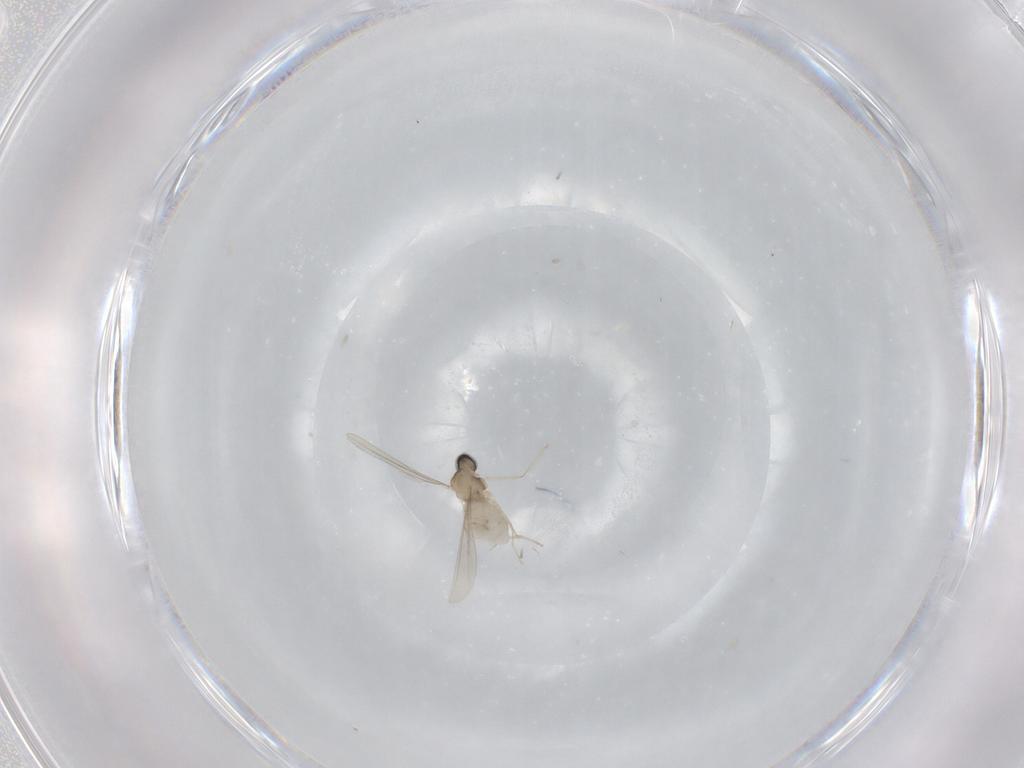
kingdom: Animalia
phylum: Arthropoda
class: Insecta
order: Diptera
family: Cecidomyiidae
